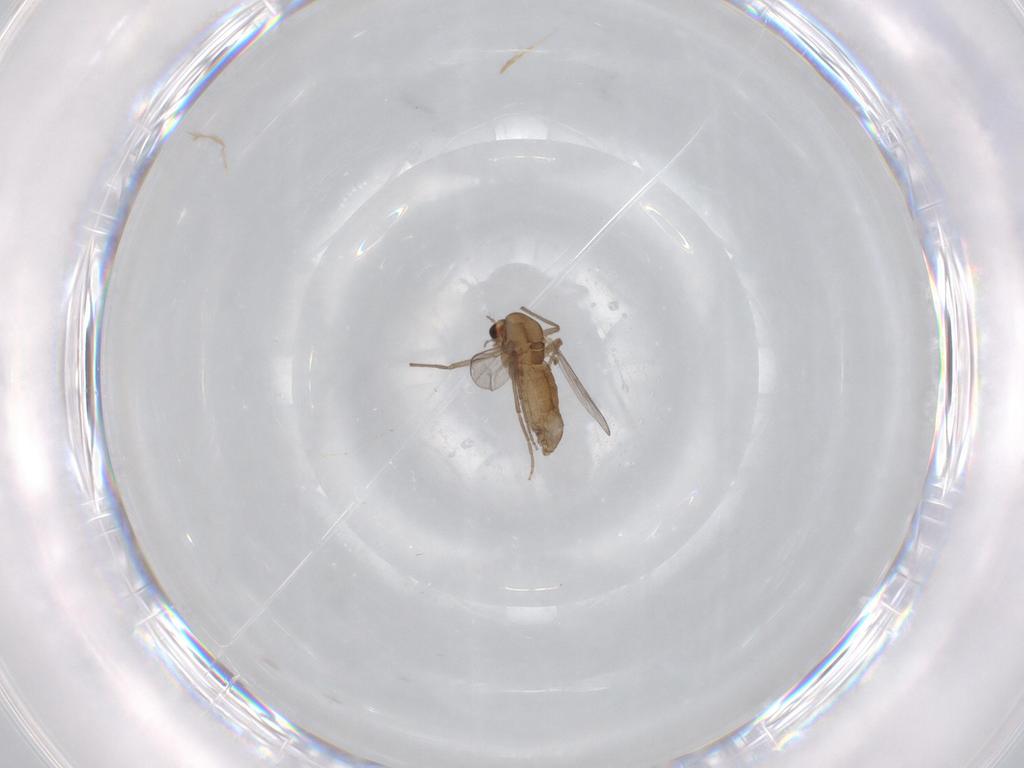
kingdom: Animalia
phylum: Arthropoda
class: Insecta
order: Diptera
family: Chironomidae
